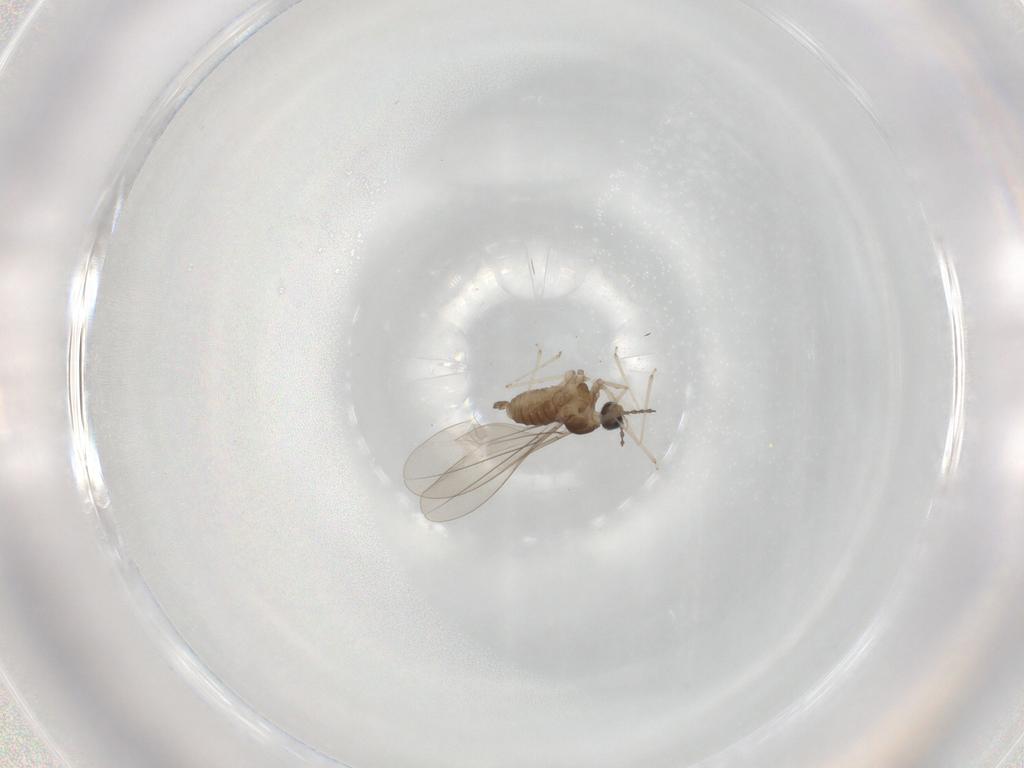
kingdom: Animalia
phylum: Arthropoda
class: Insecta
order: Diptera
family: Cecidomyiidae
